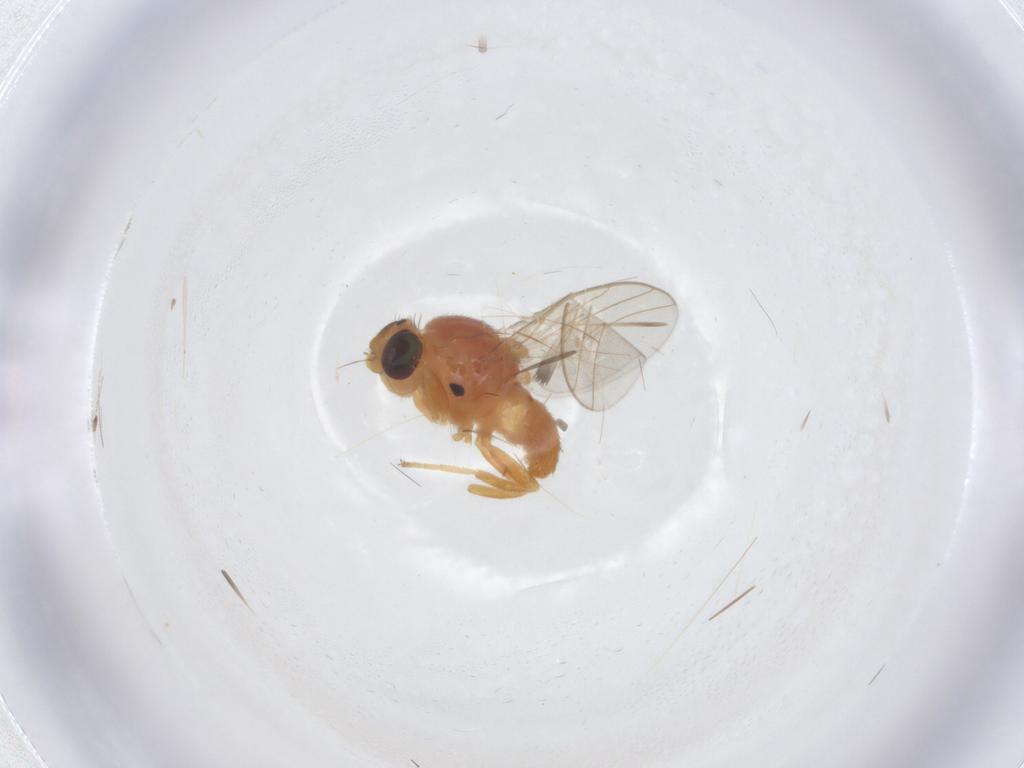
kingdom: Animalia
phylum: Arthropoda
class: Insecta
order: Diptera
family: Chloropidae
